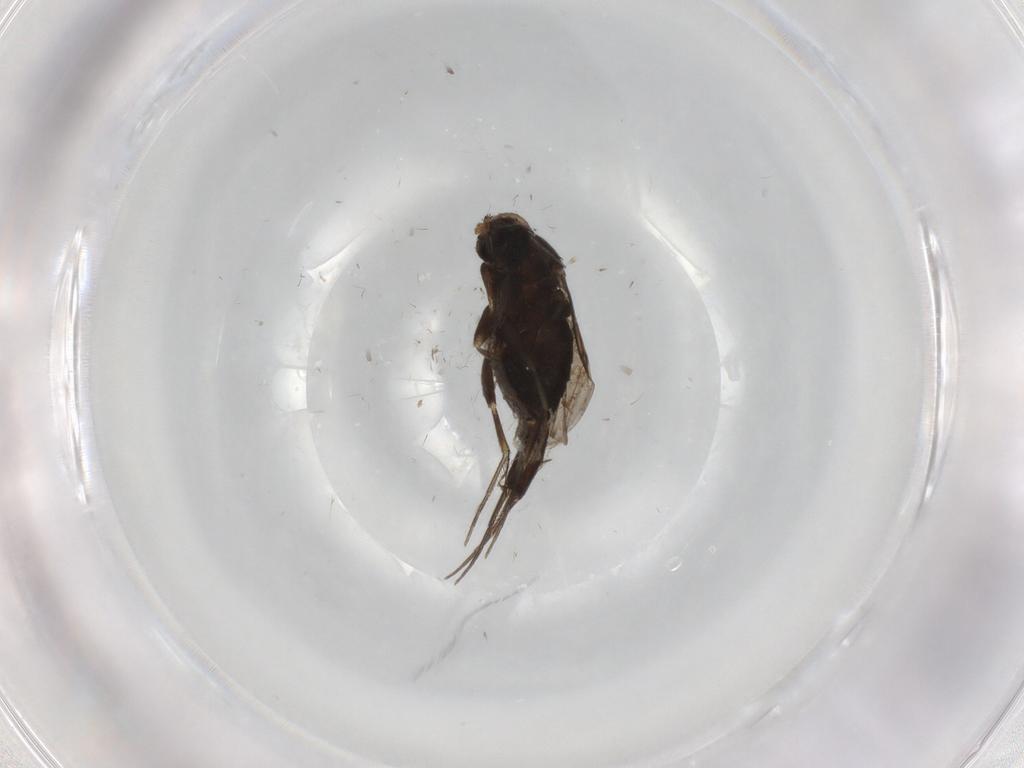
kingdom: Animalia
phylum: Arthropoda
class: Insecta
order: Diptera
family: Phoridae
